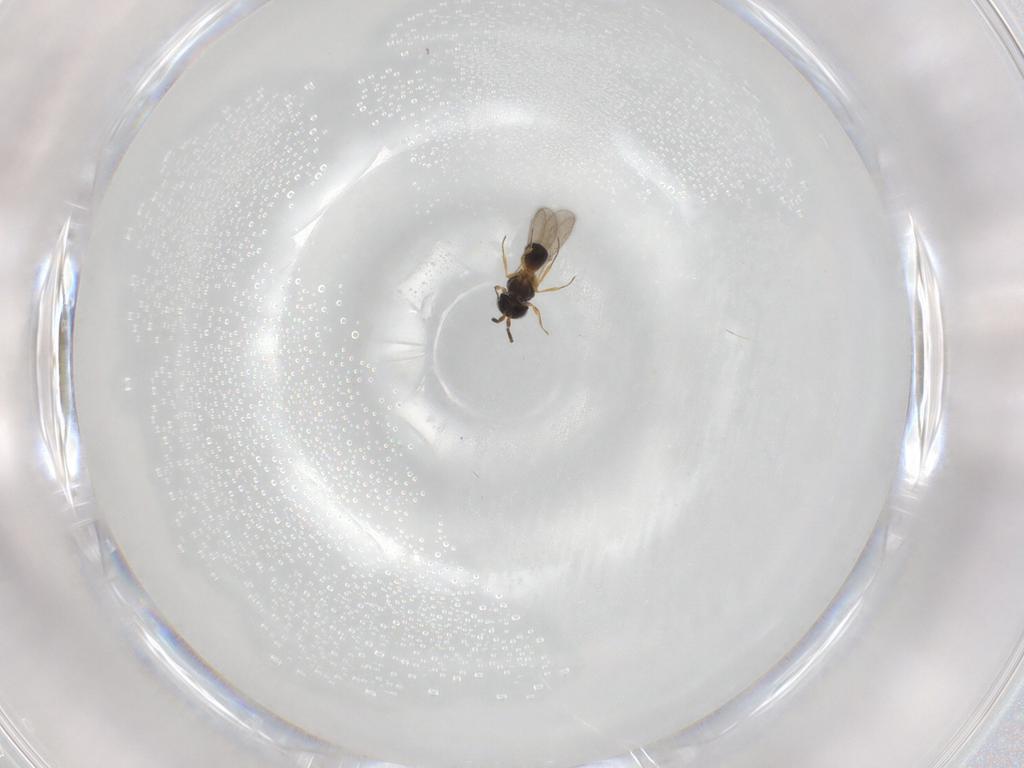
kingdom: Animalia
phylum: Arthropoda
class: Insecta
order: Hymenoptera
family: Scelionidae
